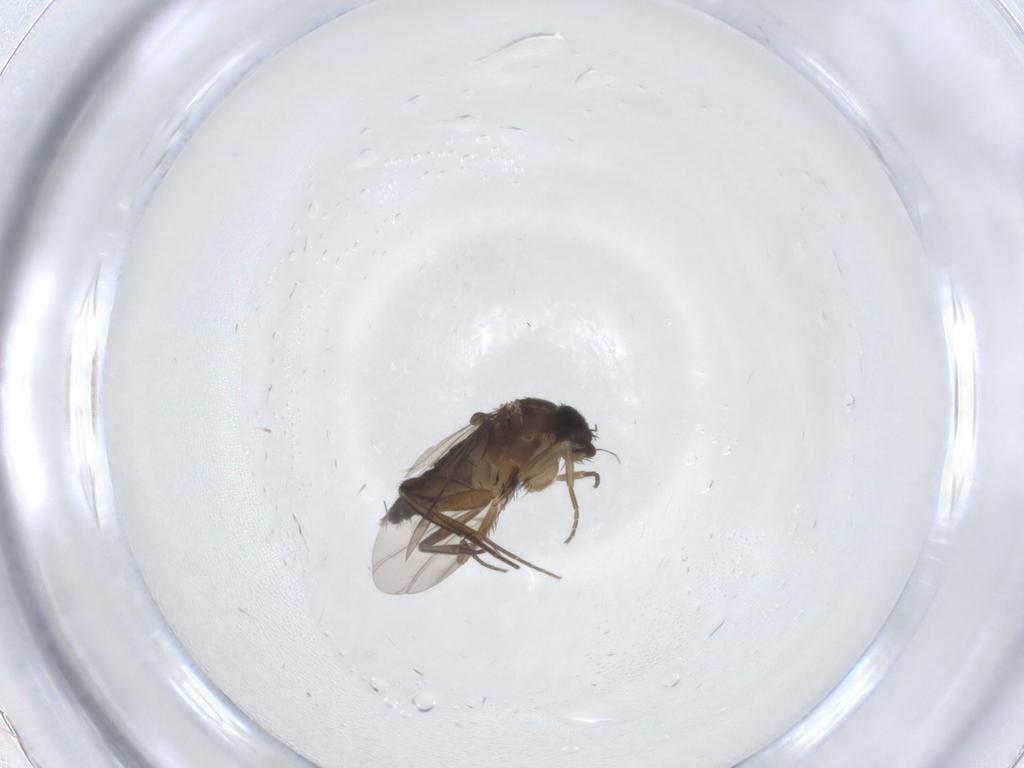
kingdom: Animalia
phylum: Arthropoda
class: Insecta
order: Diptera
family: Phoridae
